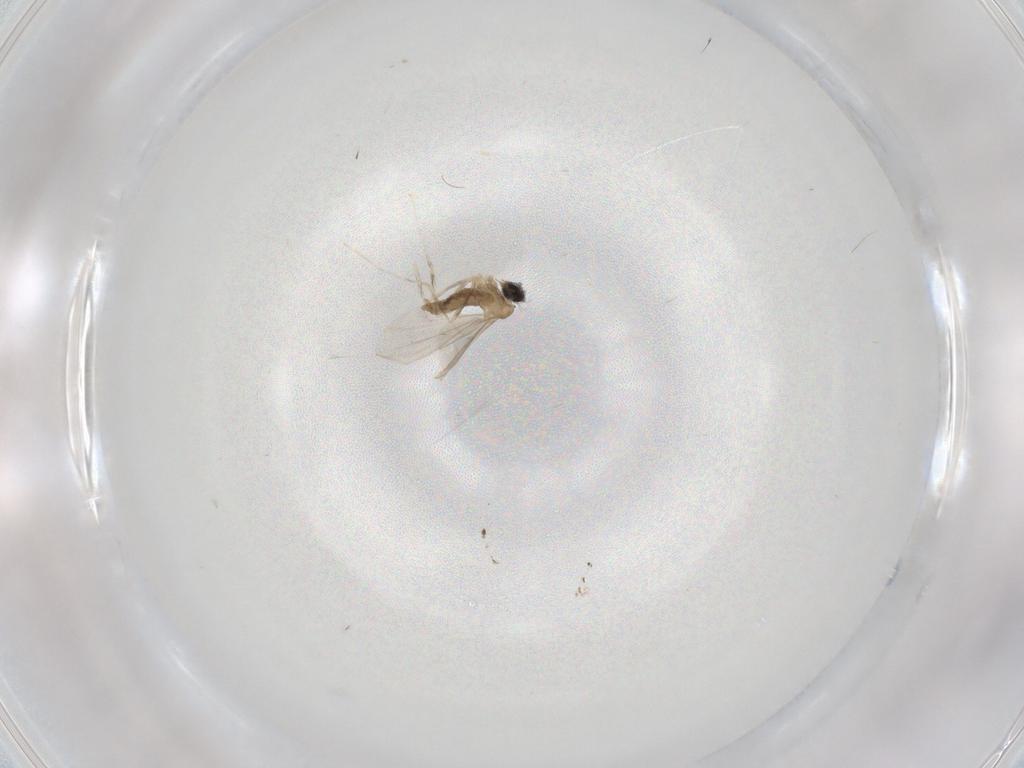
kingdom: Animalia
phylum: Arthropoda
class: Insecta
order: Diptera
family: Cecidomyiidae
